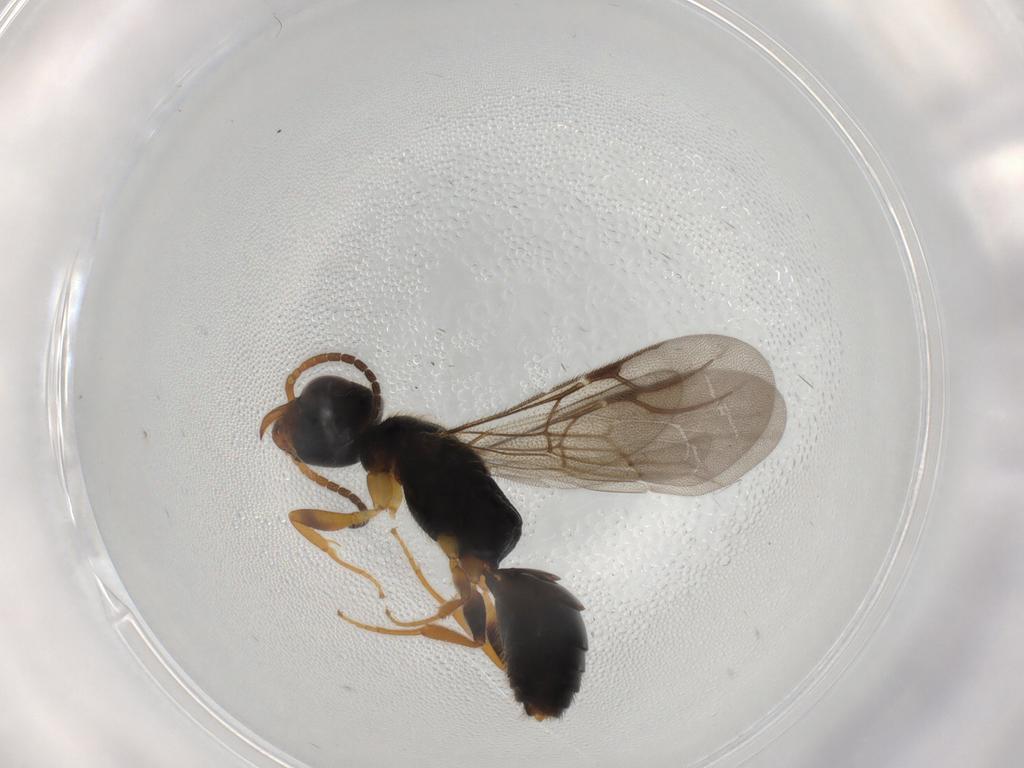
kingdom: Animalia
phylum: Arthropoda
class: Insecta
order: Hymenoptera
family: Bethylidae
